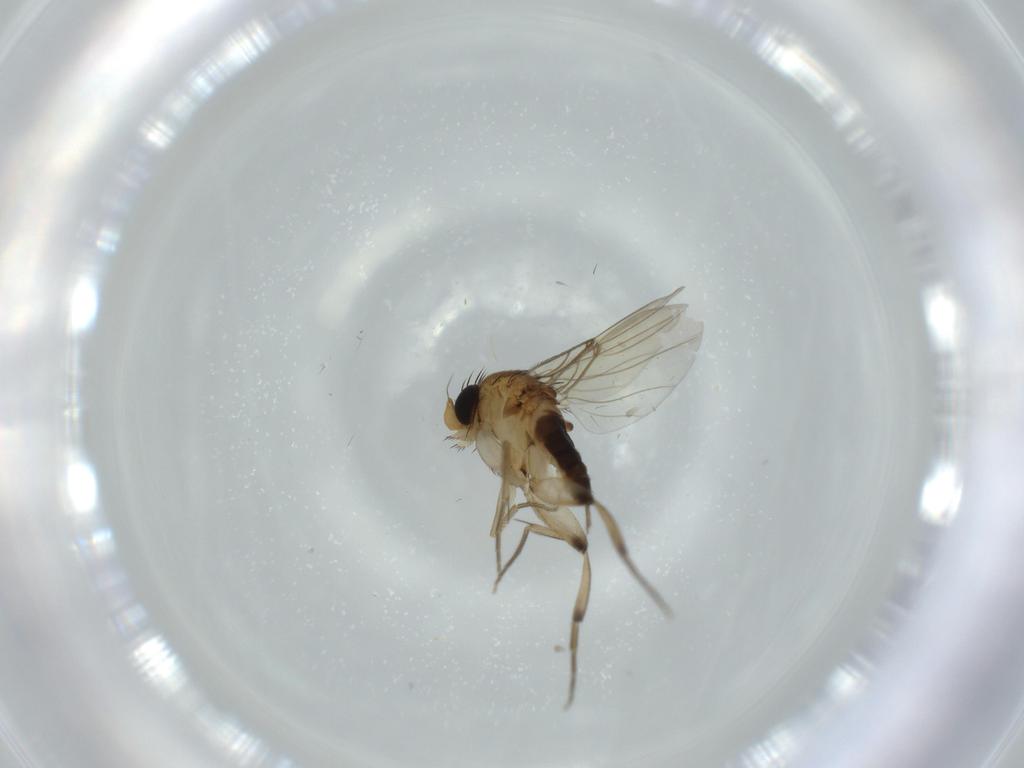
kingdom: Animalia
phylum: Arthropoda
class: Insecta
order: Diptera
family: Cecidomyiidae
